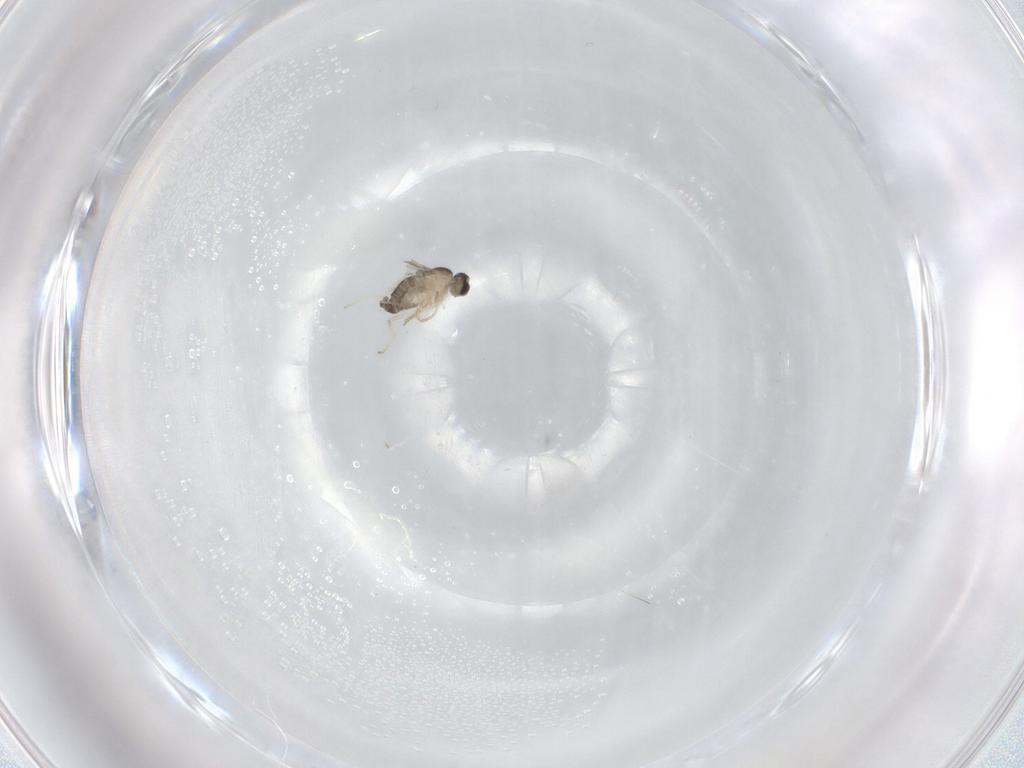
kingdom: Animalia
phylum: Arthropoda
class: Insecta
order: Diptera
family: Cecidomyiidae
